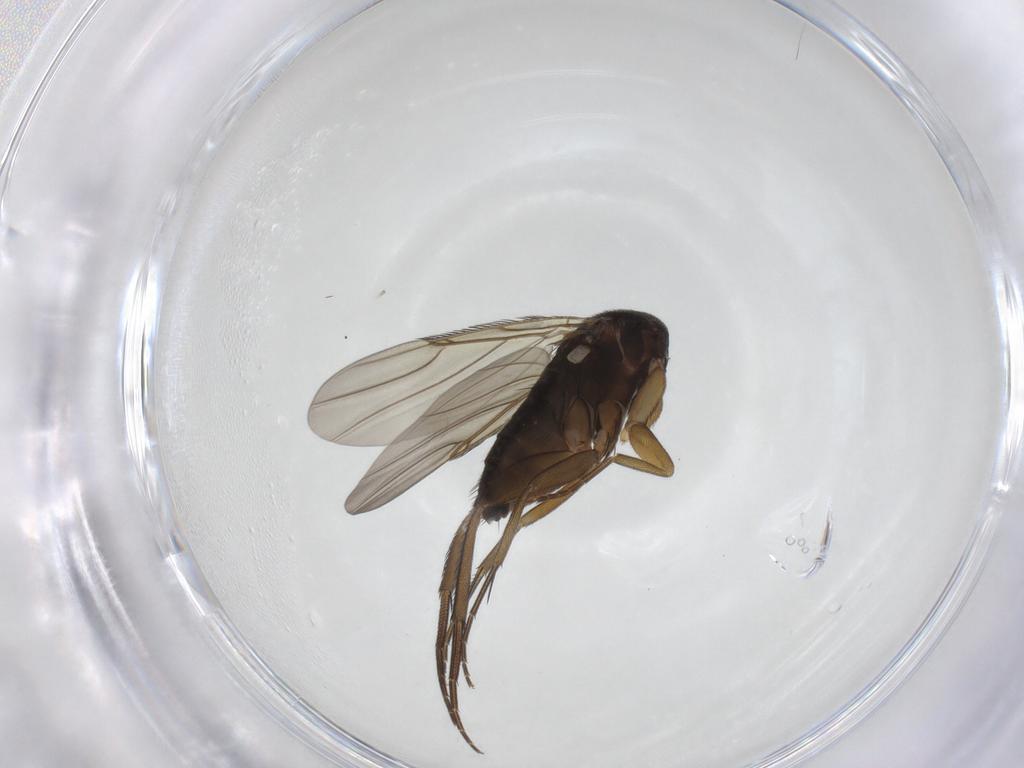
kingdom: Animalia
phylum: Arthropoda
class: Insecta
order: Diptera
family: Phoridae
